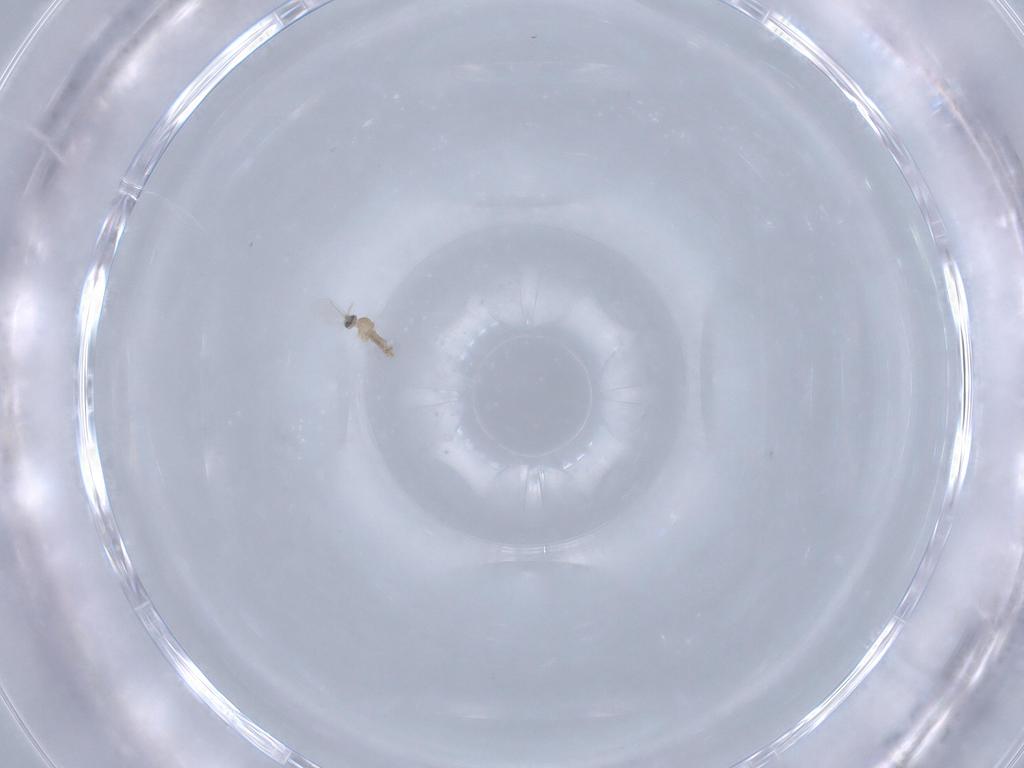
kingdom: Animalia
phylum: Arthropoda
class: Insecta
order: Diptera
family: Cecidomyiidae
